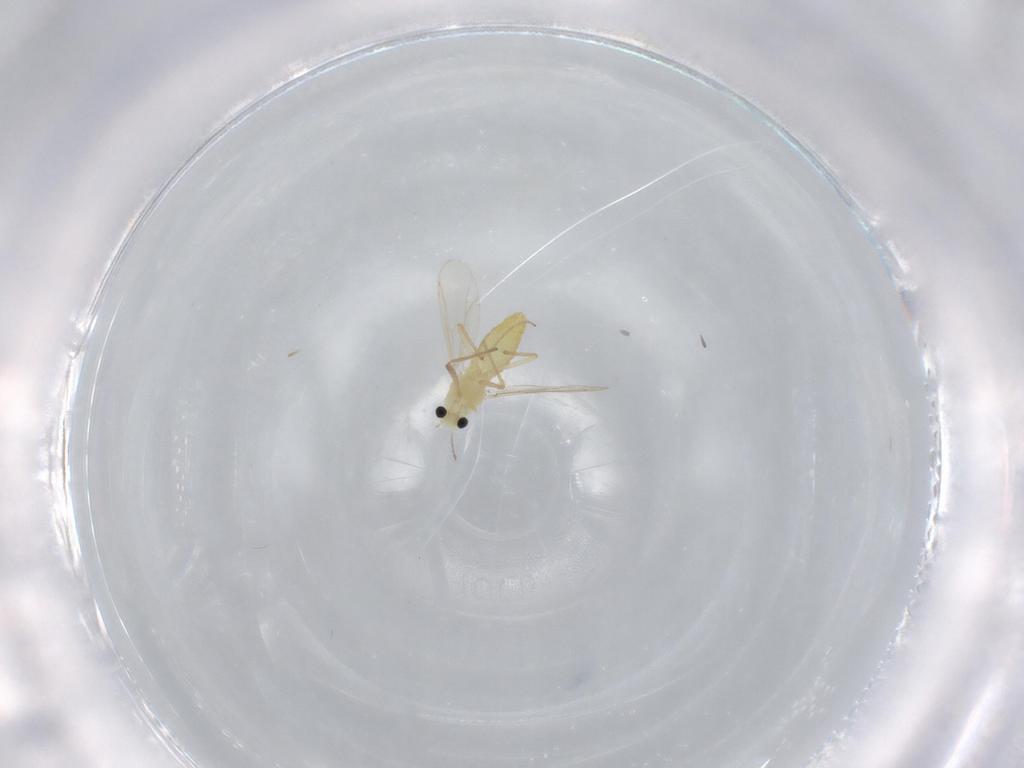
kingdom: Animalia
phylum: Arthropoda
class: Insecta
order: Diptera
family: Chironomidae
